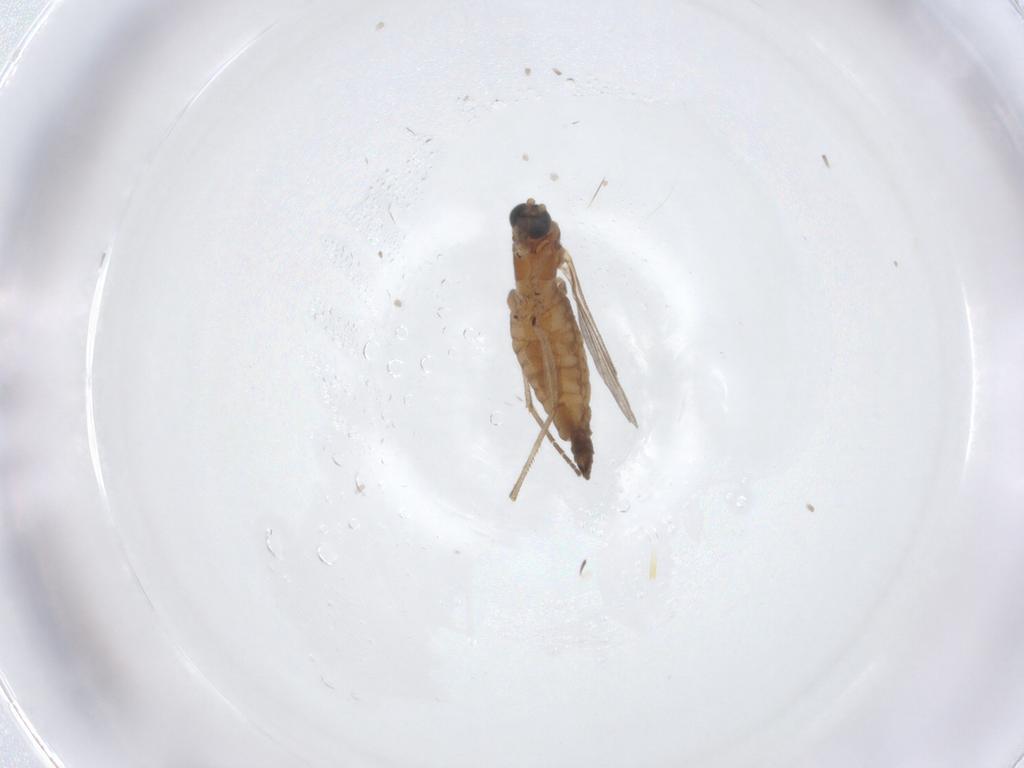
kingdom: Animalia
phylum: Arthropoda
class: Insecta
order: Diptera
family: Sciaridae
